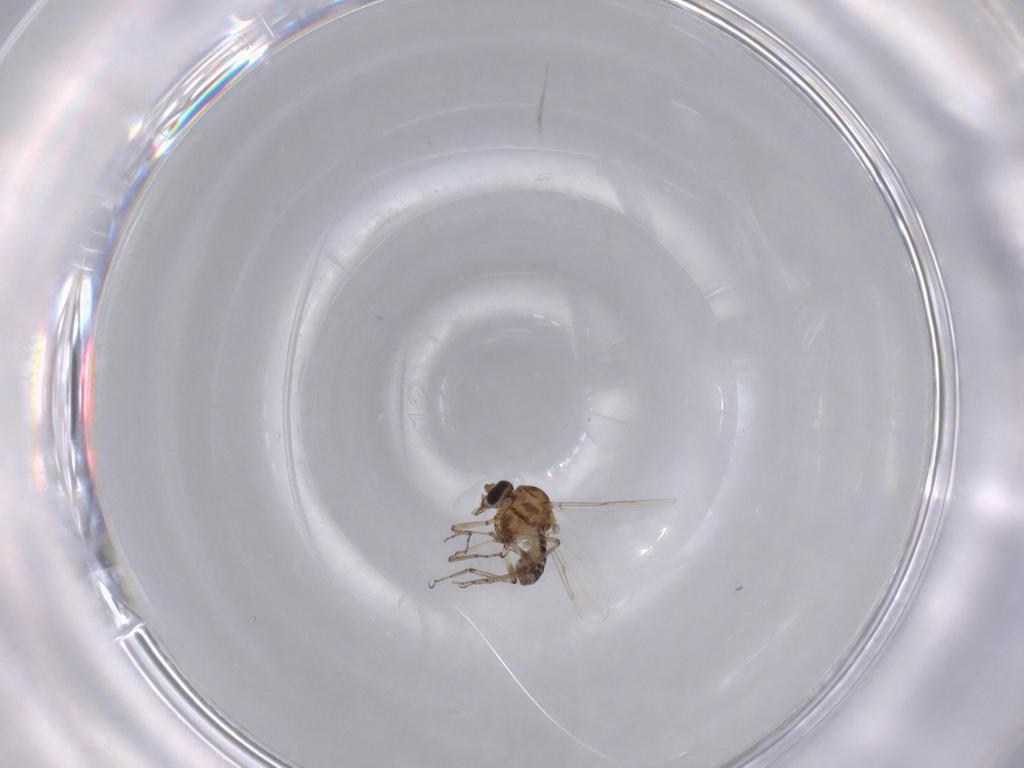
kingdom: Animalia
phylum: Arthropoda
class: Insecta
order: Diptera
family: Ceratopogonidae
